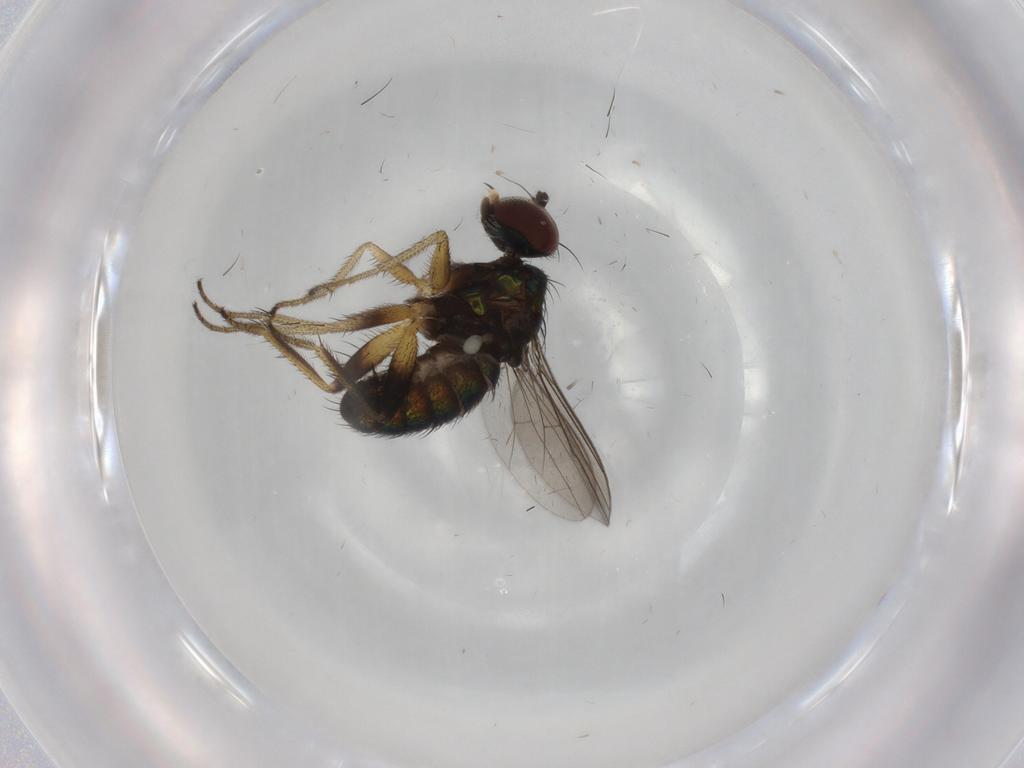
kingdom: Animalia
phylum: Arthropoda
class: Insecta
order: Diptera
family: Dolichopodidae
